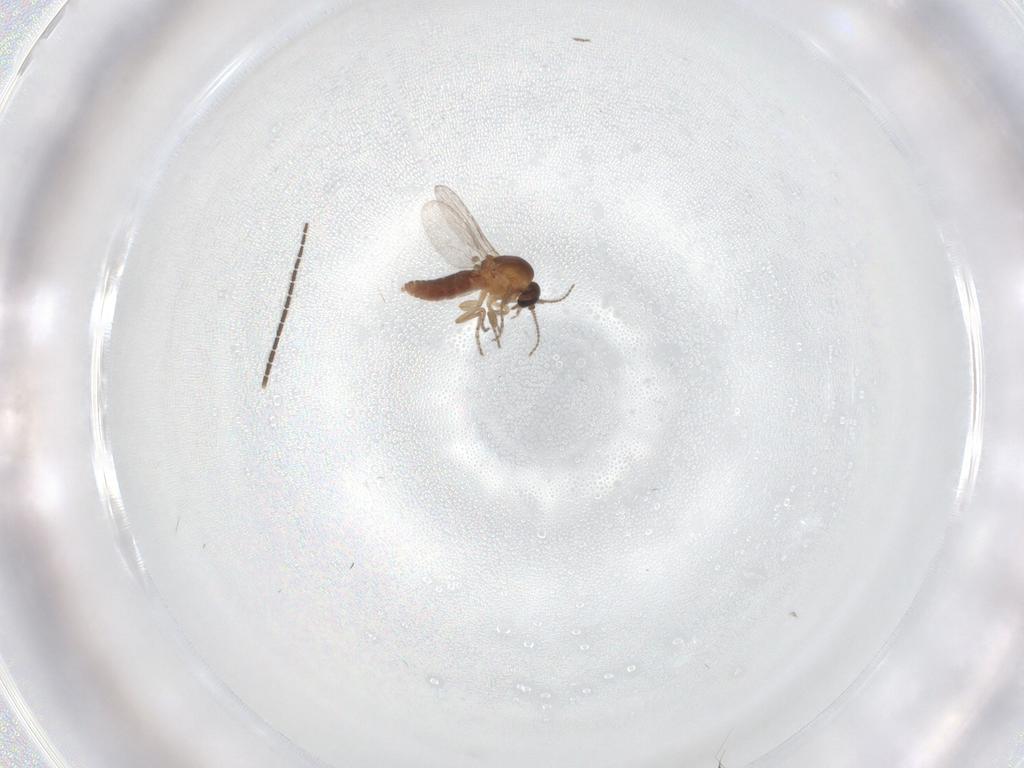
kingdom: Animalia
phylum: Arthropoda
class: Insecta
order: Diptera
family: Ceratopogonidae
